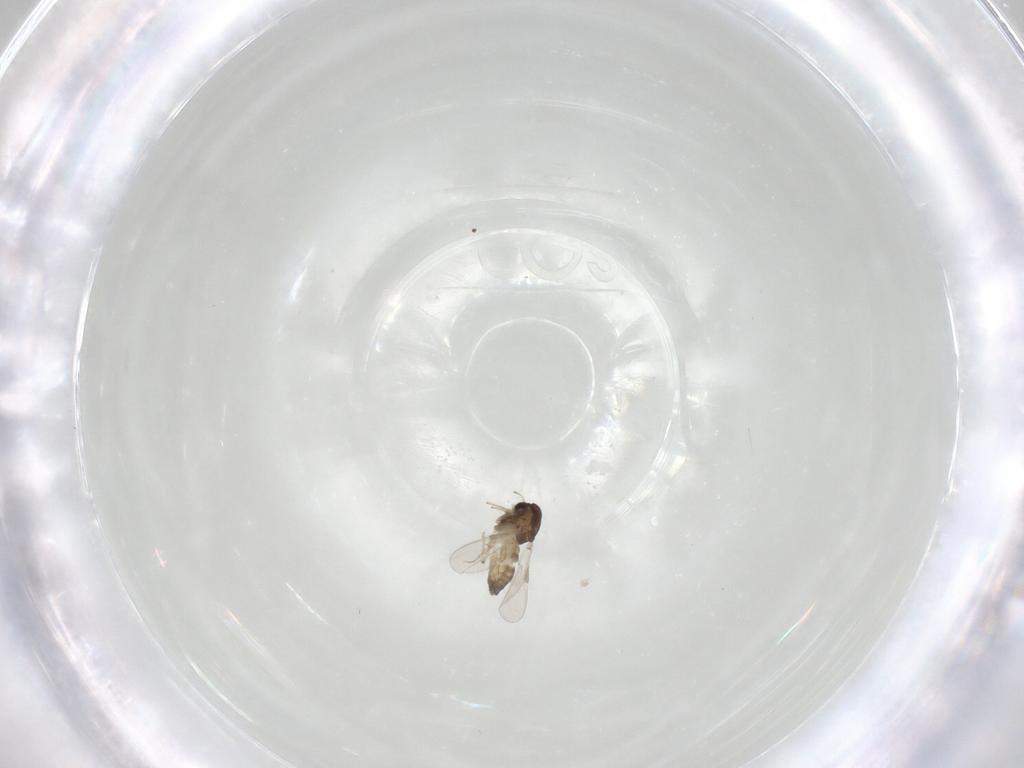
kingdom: Animalia
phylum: Arthropoda
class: Insecta
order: Diptera
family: Chironomidae
